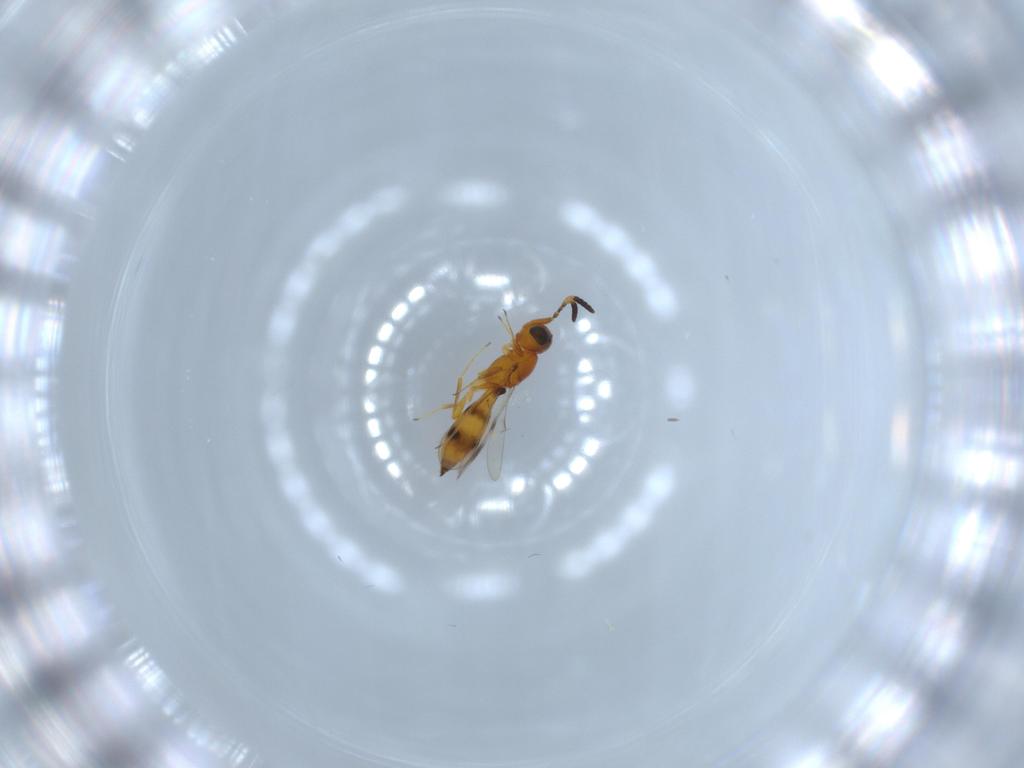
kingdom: Animalia
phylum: Arthropoda
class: Insecta
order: Hymenoptera
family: Scelionidae
